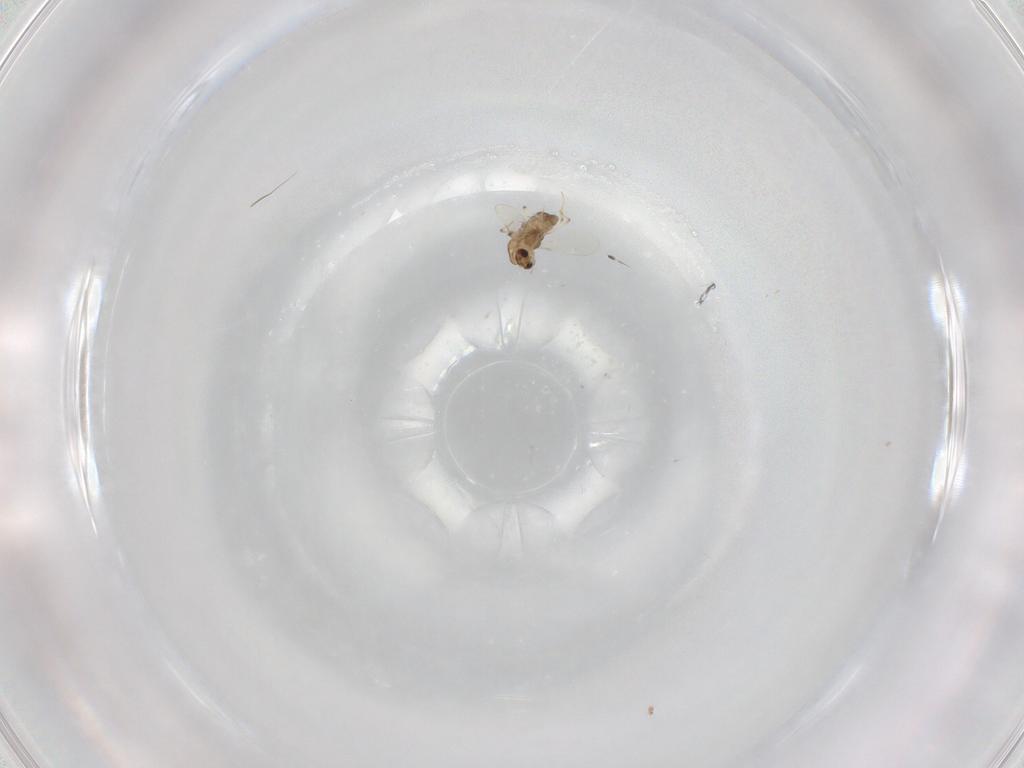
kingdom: Animalia
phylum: Arthropoda
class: Insecta
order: Diptera
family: Chironomidae
